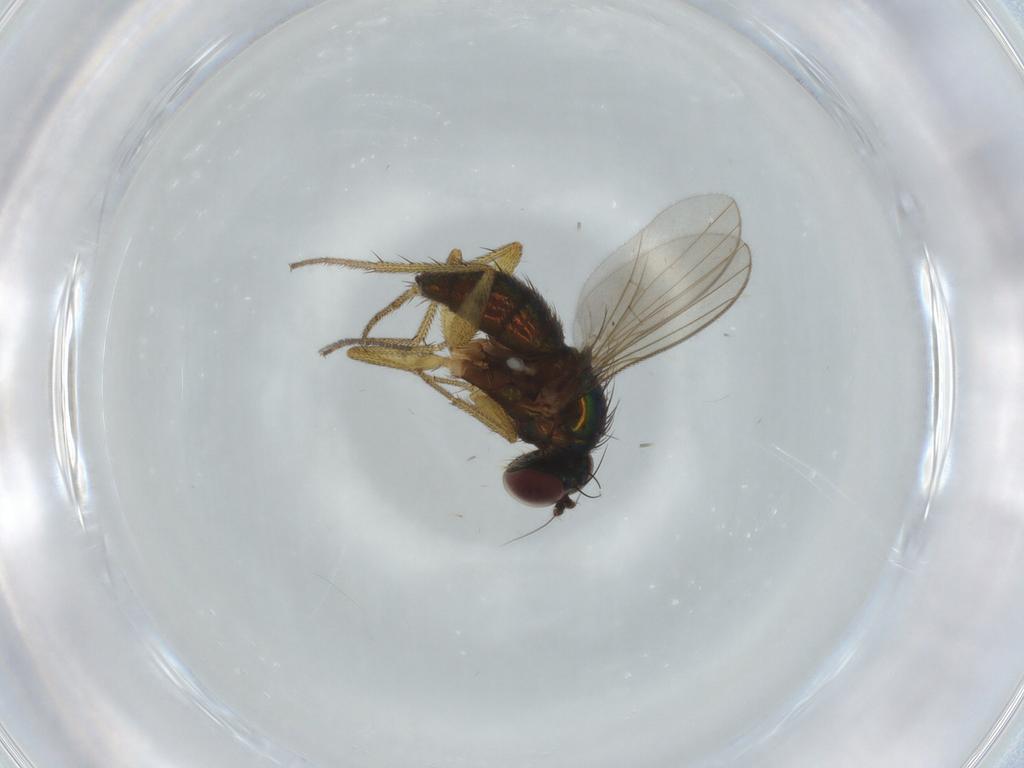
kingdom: Animalia
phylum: Arthropoda
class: Insecta
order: Diptera
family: Sciaridae
